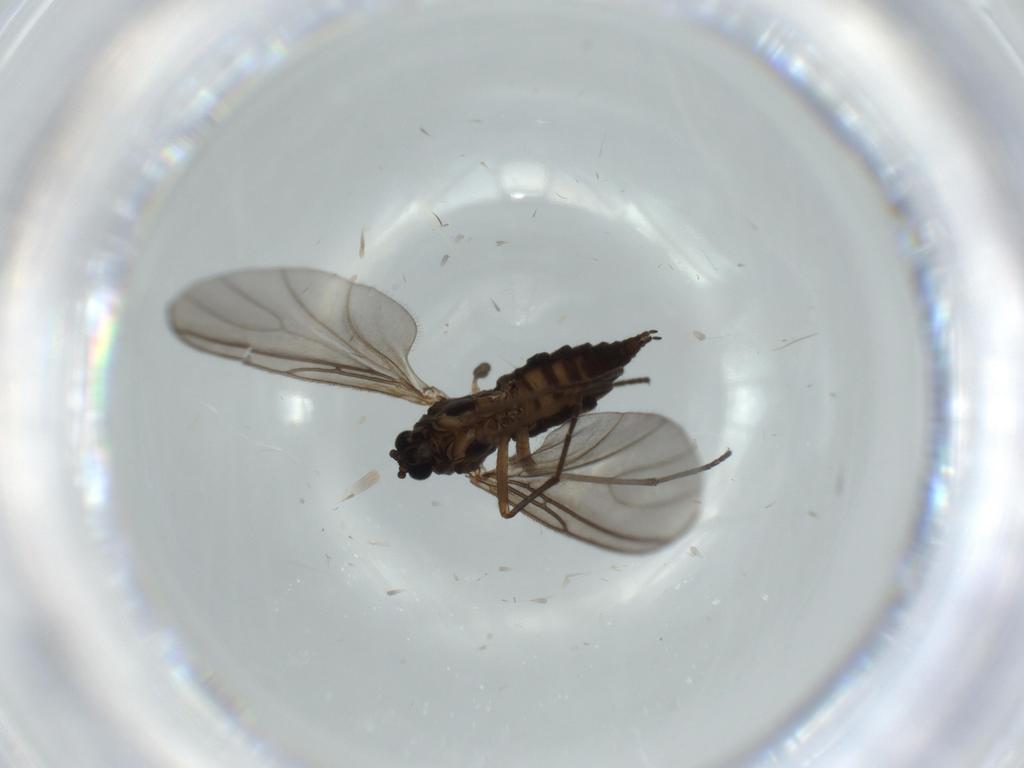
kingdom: Animalia
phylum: Arthropoda
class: Insecta
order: Diptera
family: Sciaridae
